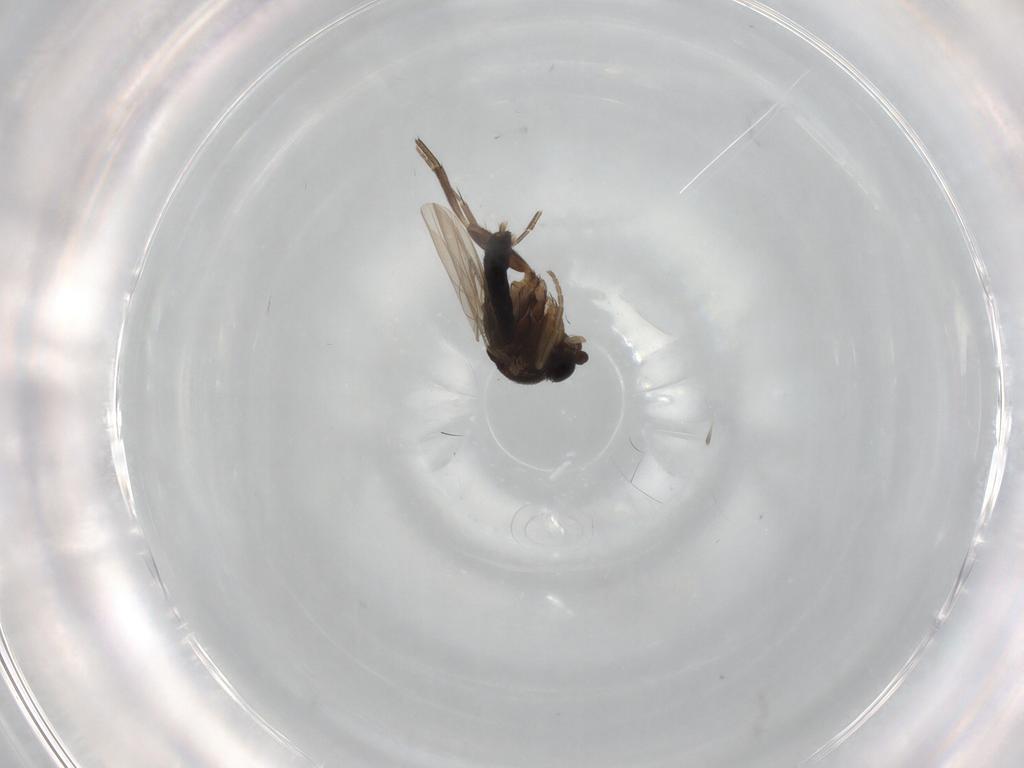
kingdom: Animalia
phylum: Arthropoda
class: Insecta
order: Diptera
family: Phoridae
